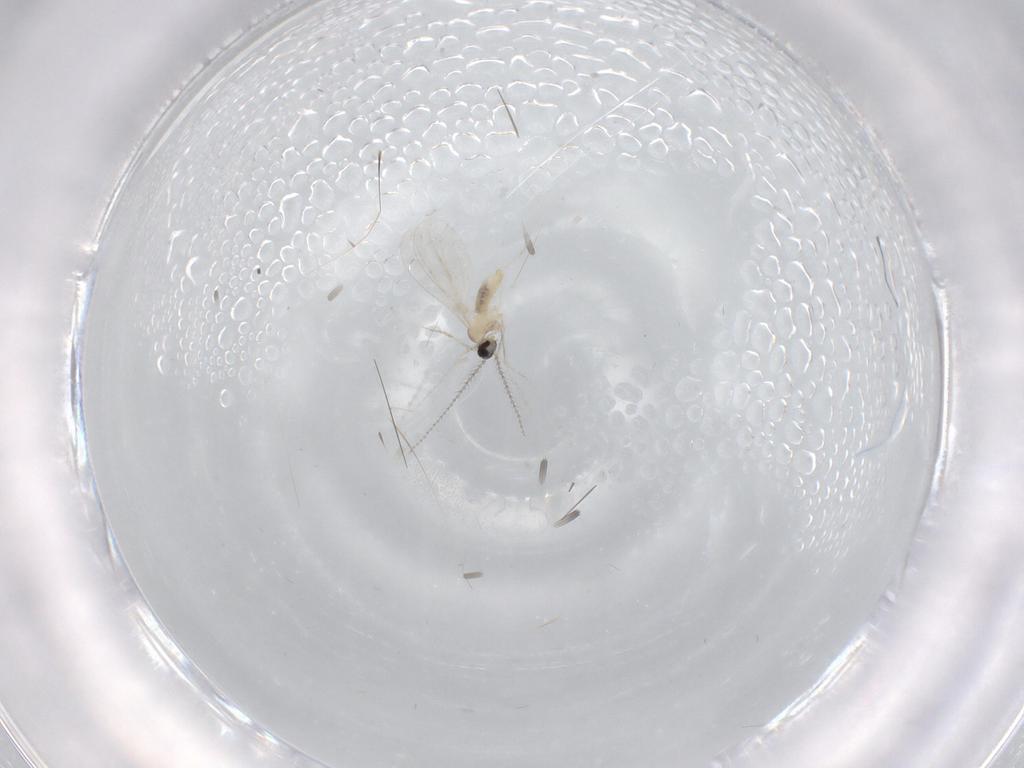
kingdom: Animalia
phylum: Arthropoda
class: Insecta
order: Diptera
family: Cecidomyiidae
